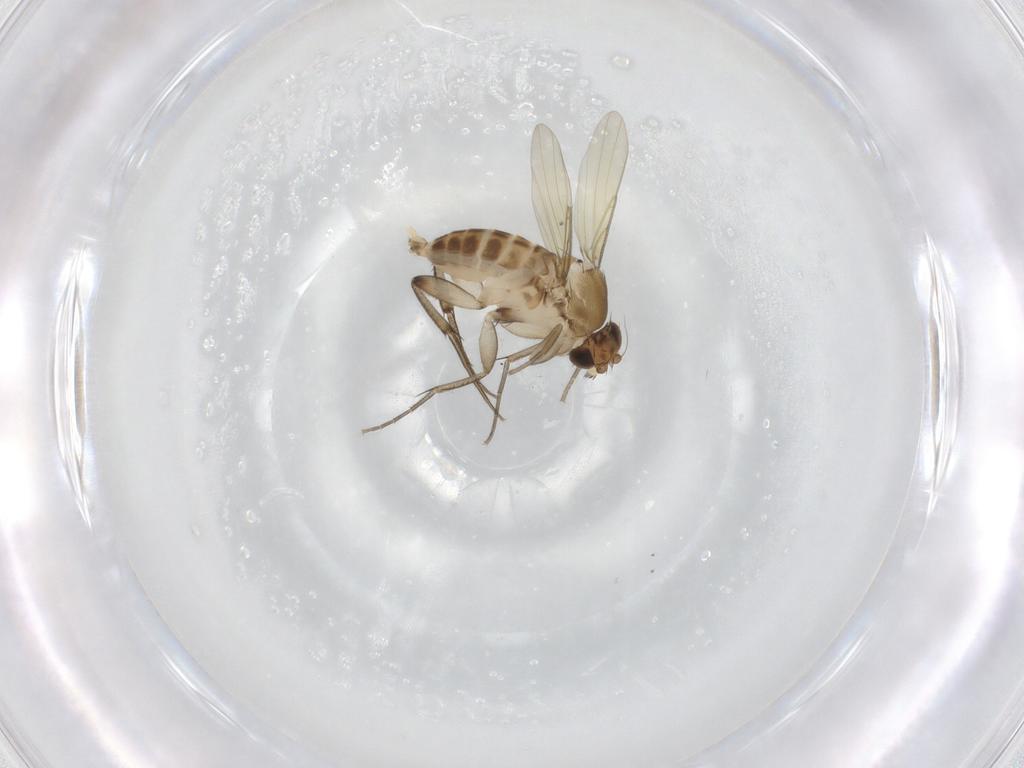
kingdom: Animalia
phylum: Arthropoda
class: Insecta
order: Diptera
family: Phoridae
